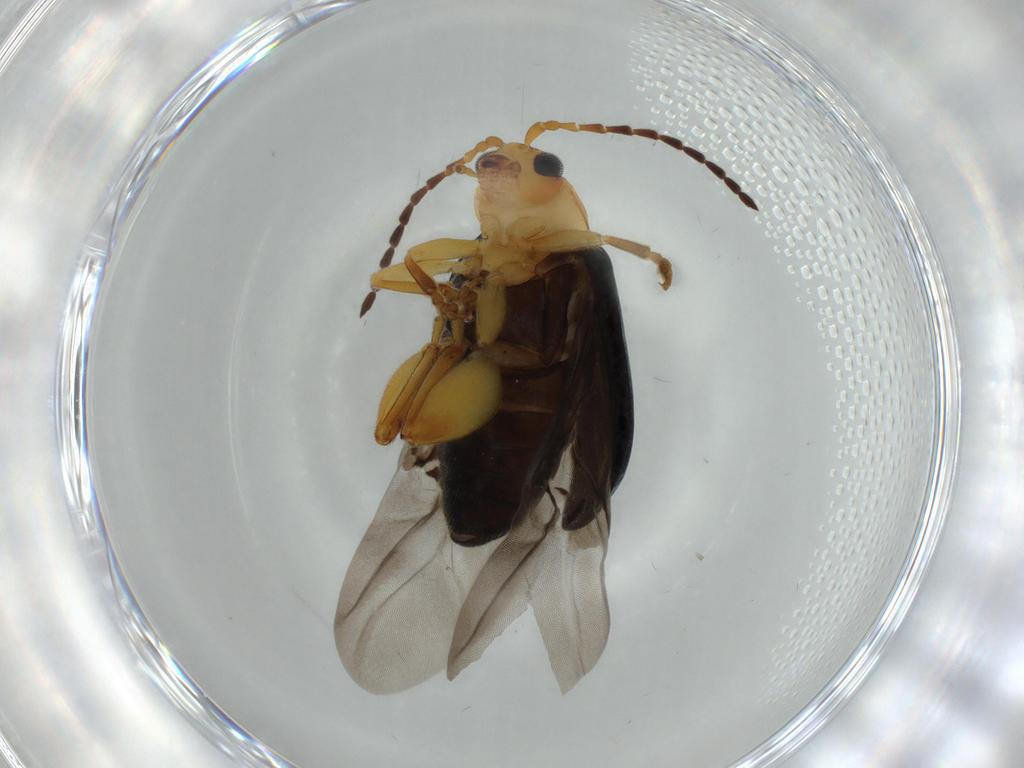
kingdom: Animalia
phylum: Arthropoda
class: Insecta
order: Coleoptera
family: Chrysomelidae
